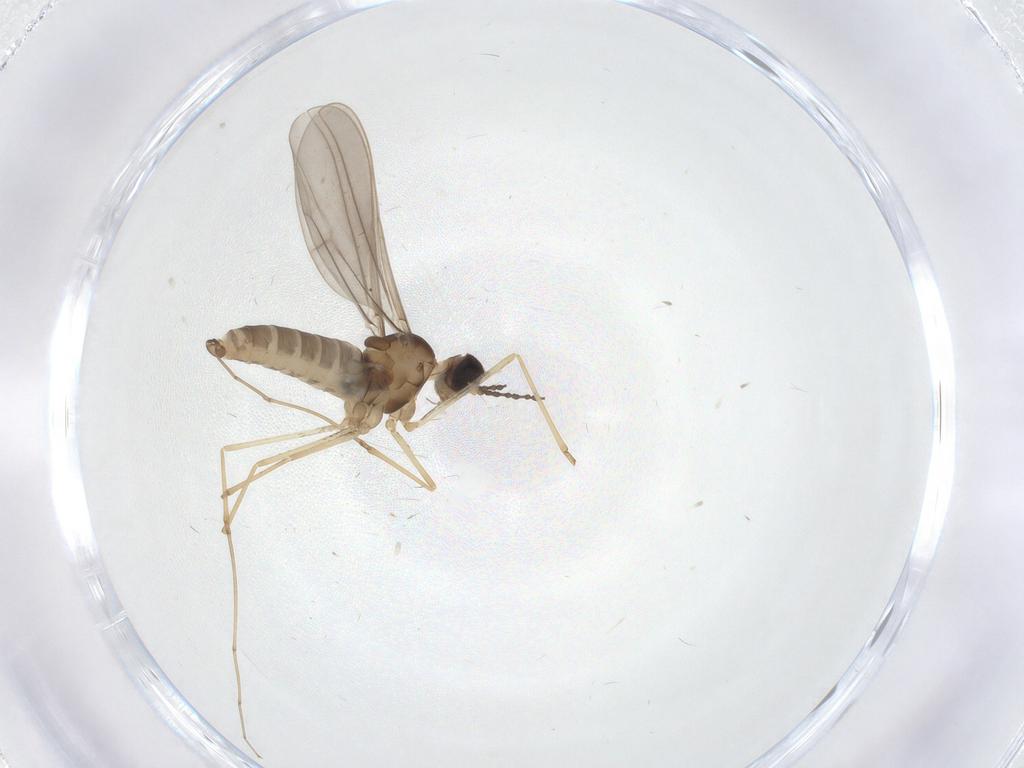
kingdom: Animalia
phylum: Arthropoda
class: Insecta
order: Diptera
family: Cecidomyiidae
